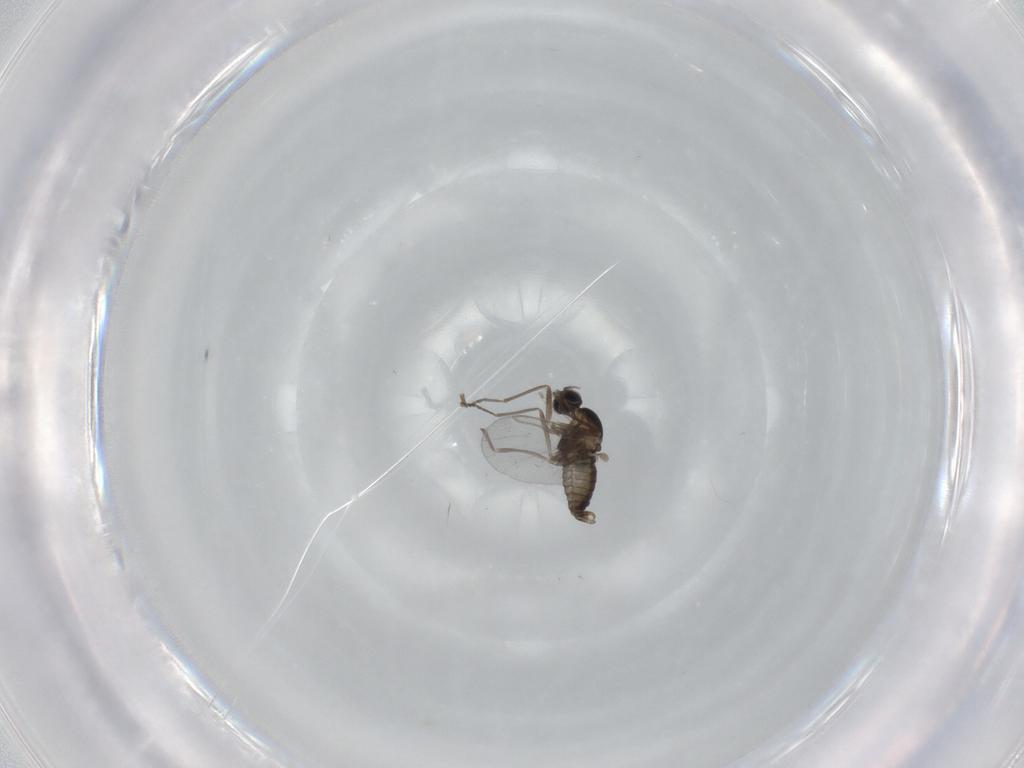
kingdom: Animalia
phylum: Arthropoda
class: Insecta
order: Diptera
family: Cecidomyiidae
